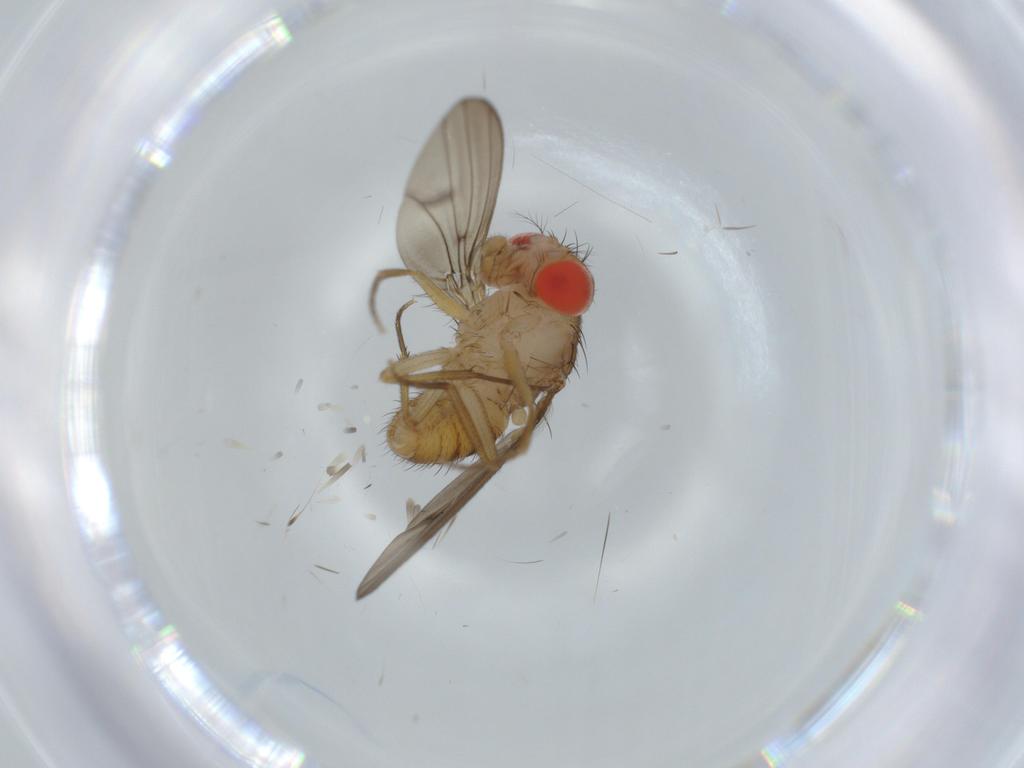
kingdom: Animalia
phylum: Arthropoda
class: Insecta
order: Diptera
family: Drosophilidae
